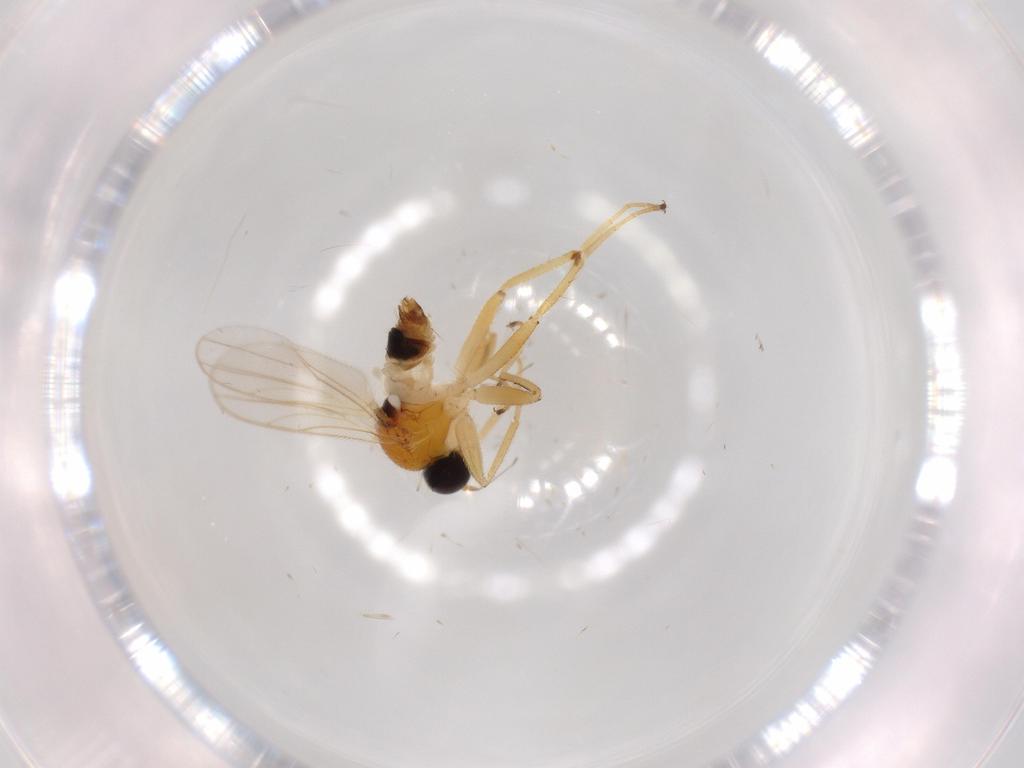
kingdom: Animalia
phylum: Arthropoda
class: Insecta
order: Diptera
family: Hybotidae
